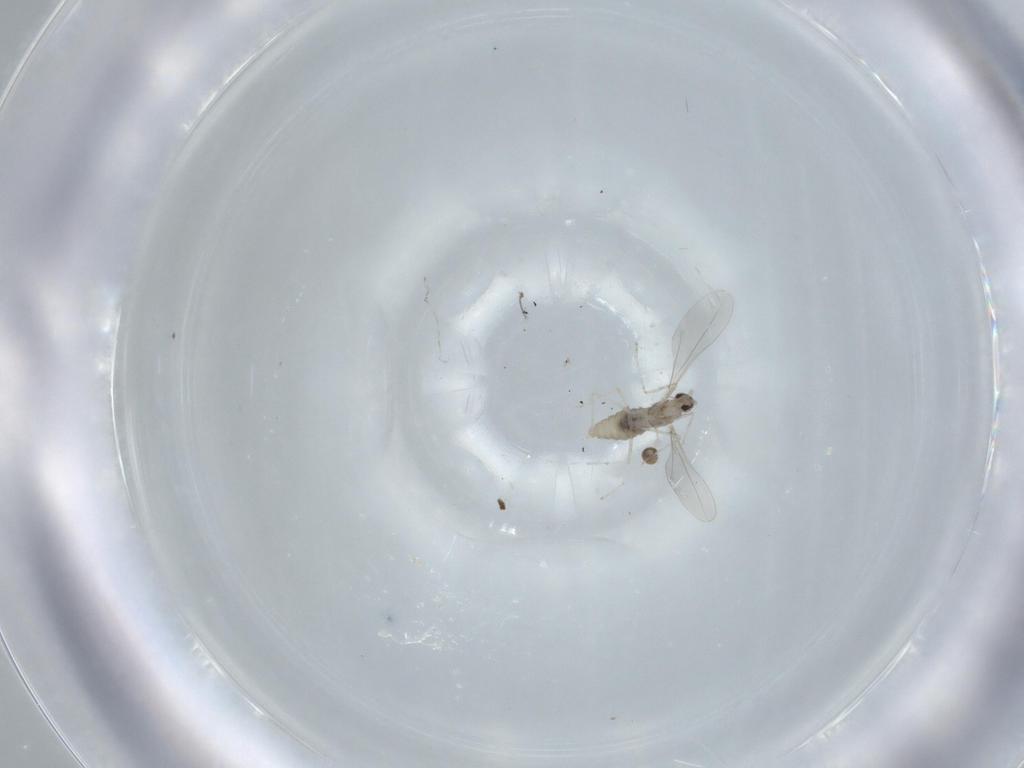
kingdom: Animalia
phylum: Arthropoda
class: Insecta
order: Diptera
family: Cecidomyiidae
